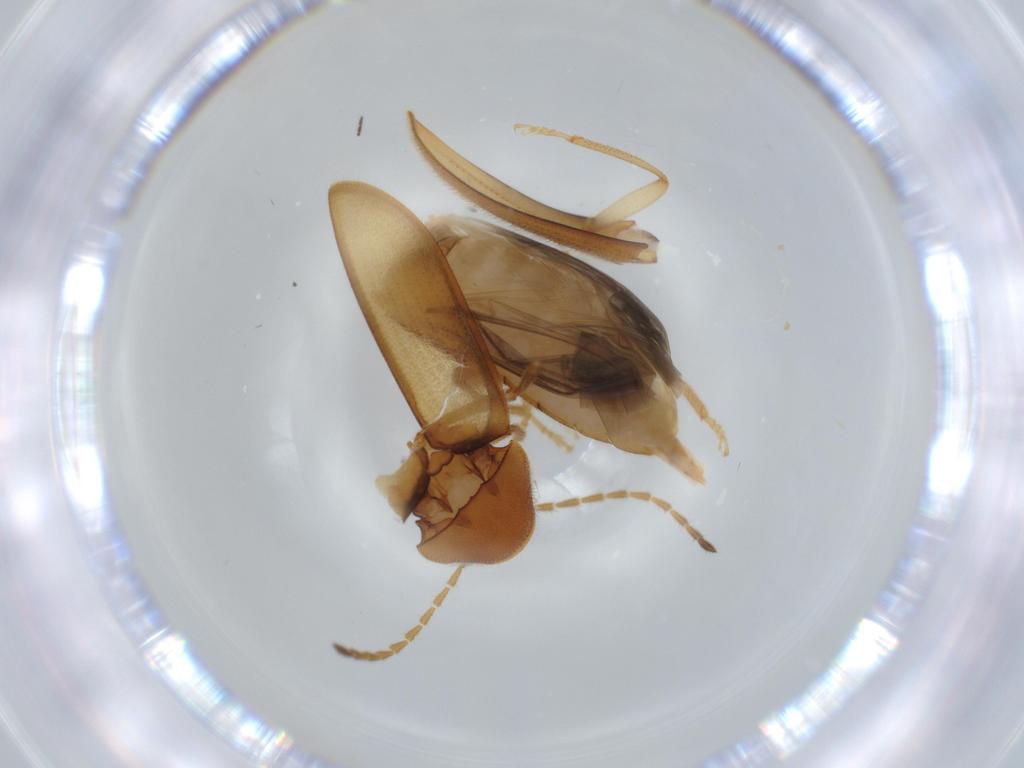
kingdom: Animalia
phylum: Arthropoda
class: Insecta
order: Coleoptera
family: Ptilodactylidae
